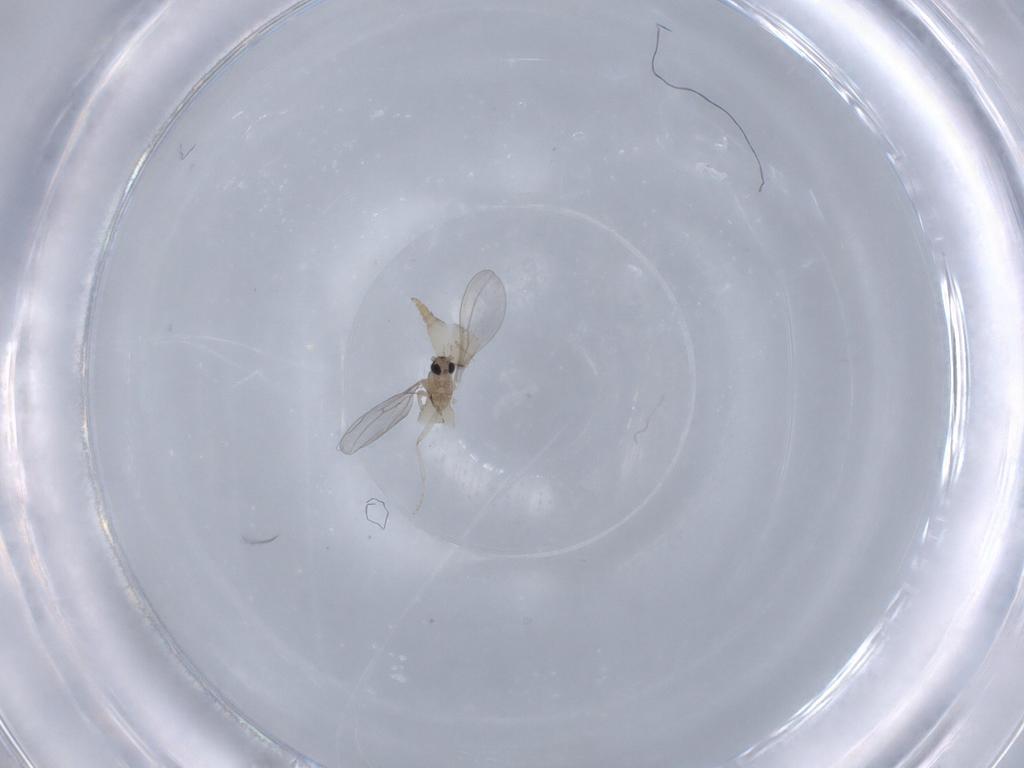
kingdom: Animalia
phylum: Arthropoda
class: Insecta
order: Diptera
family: Cecidomyiidae
